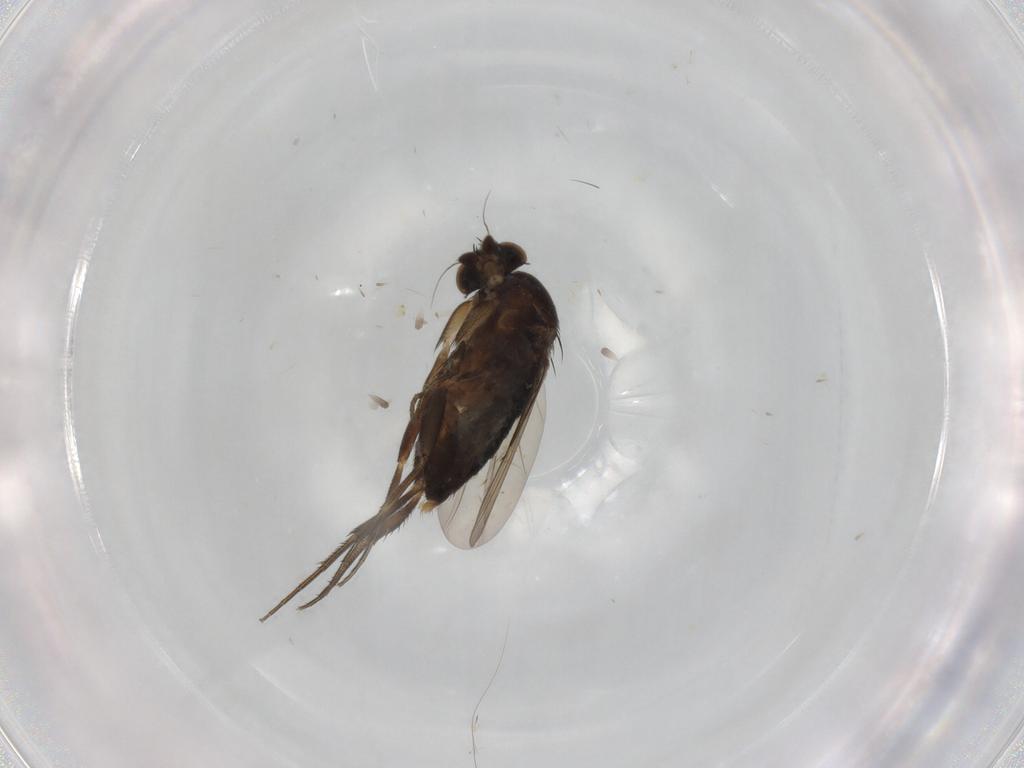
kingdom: Animalia
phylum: Arthropoda
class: Insecta
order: Diptera
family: Phoridae
